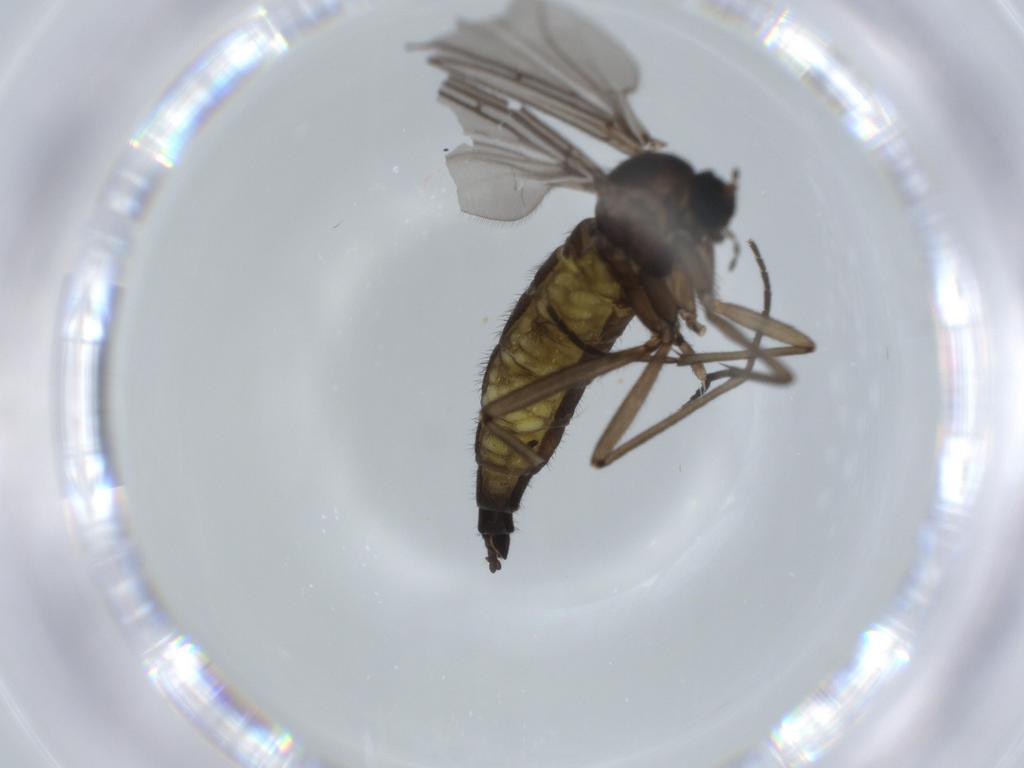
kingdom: Animalia
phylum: Arthropoda
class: Insecta
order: Diptera
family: Sciaridae
